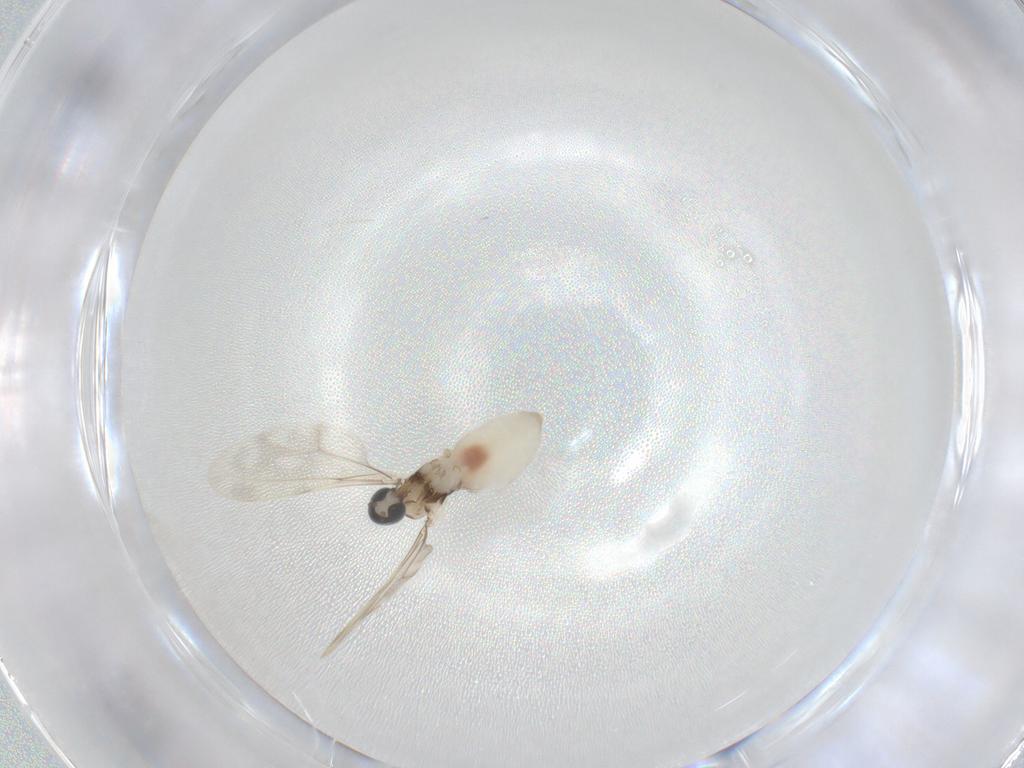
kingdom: Animalia
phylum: Arthropoda
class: Insecta
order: Diptera
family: Cecidomyiidae
